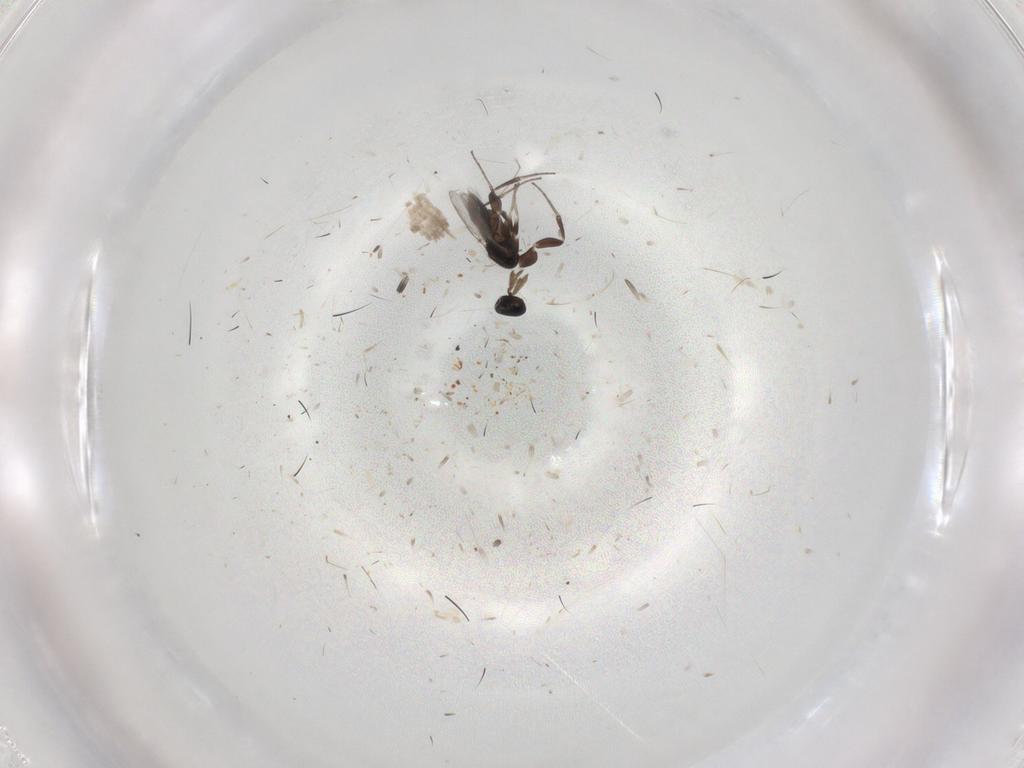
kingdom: Animalia
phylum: Arthropoda
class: Insecta
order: Hymenoptera
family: Eulophidae
